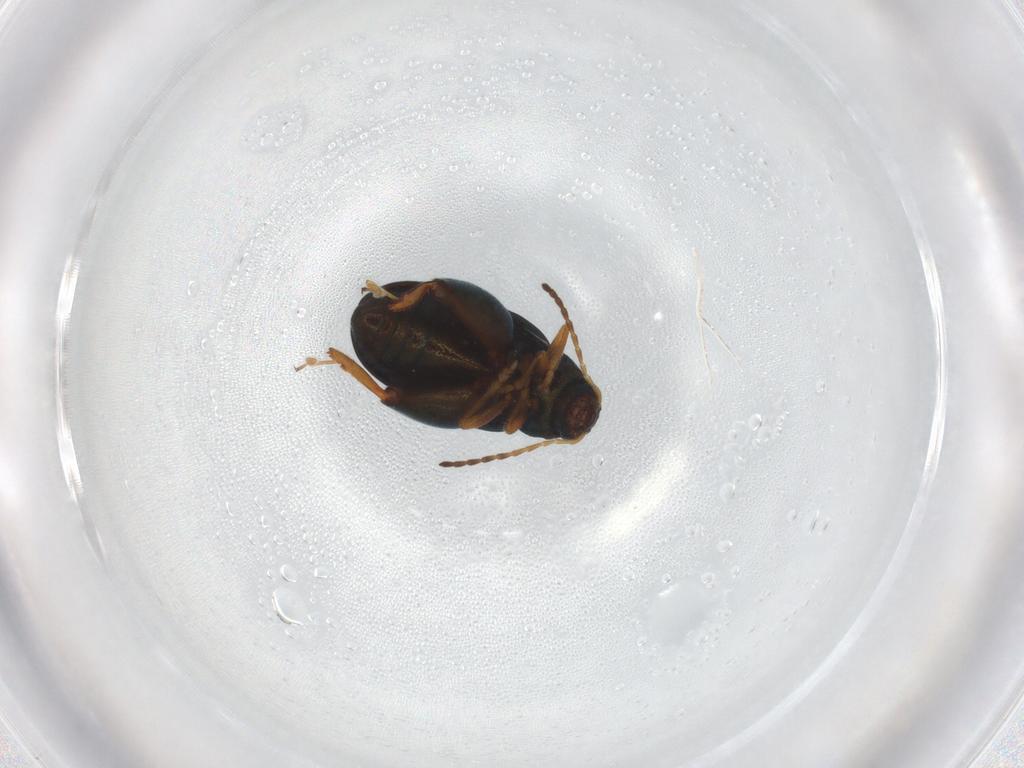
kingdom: Animalia
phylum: Arthropoda
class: Insecta
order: Coleoptera
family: Chrysomelidae
